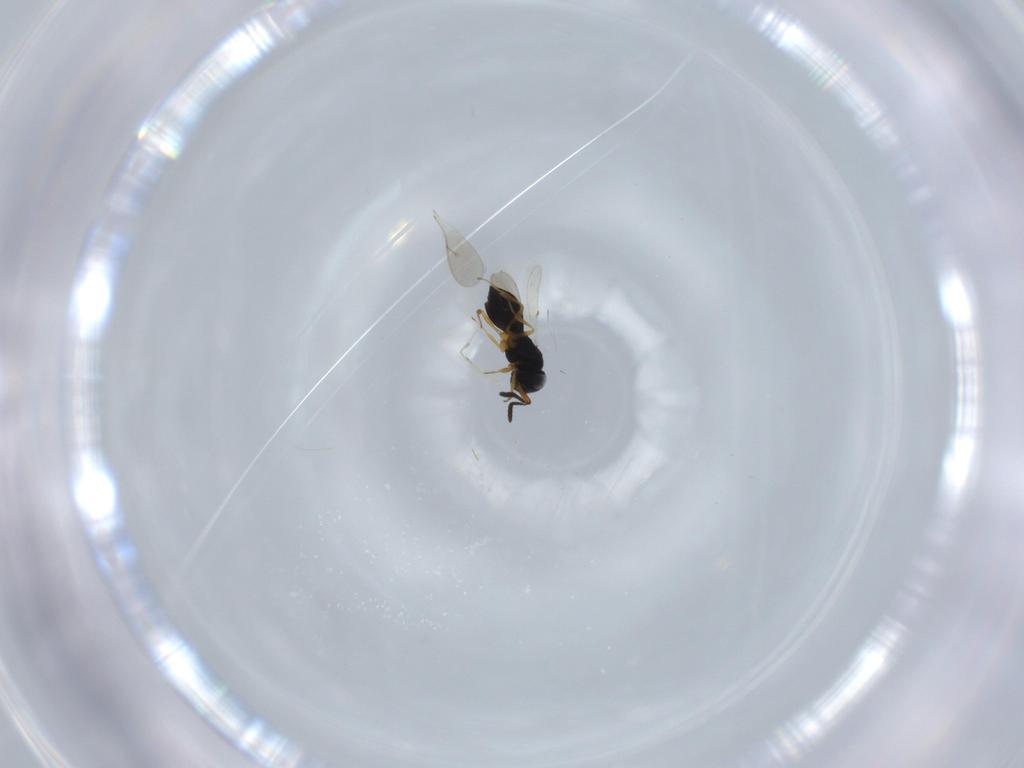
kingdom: Animalia
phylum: Arthropoda
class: Insecta
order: Hymenoptera
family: Scelionidae
